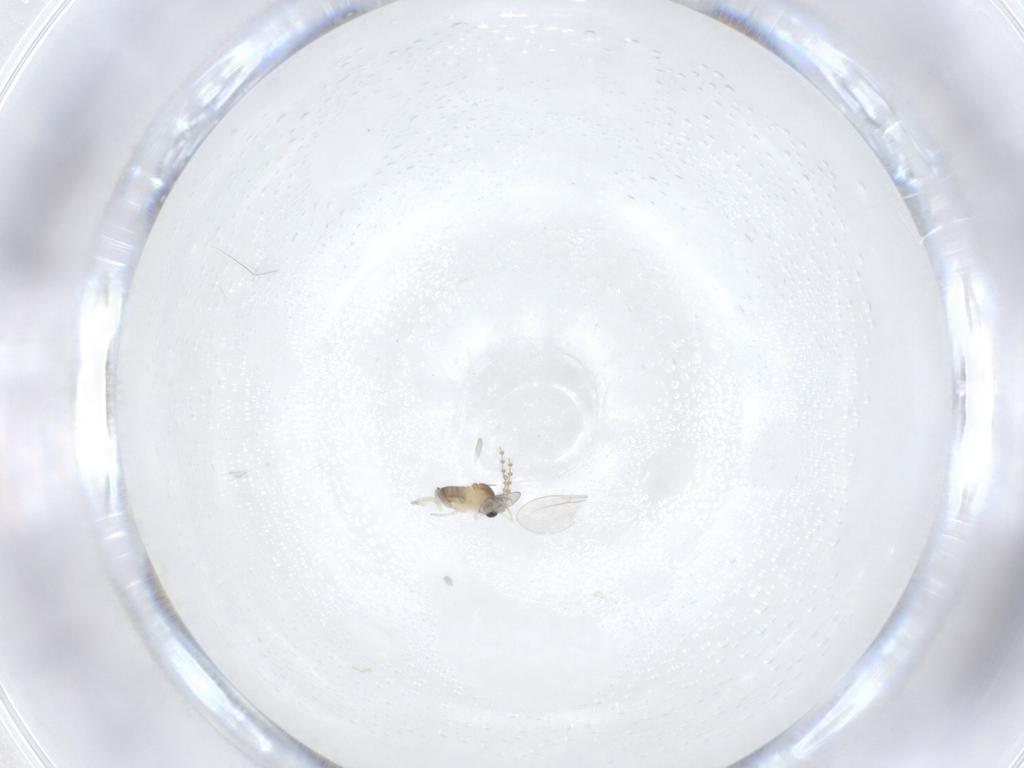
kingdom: Animalia
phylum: Arthropoda
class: Insecta
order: Diptera
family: Cecidomyiidae
